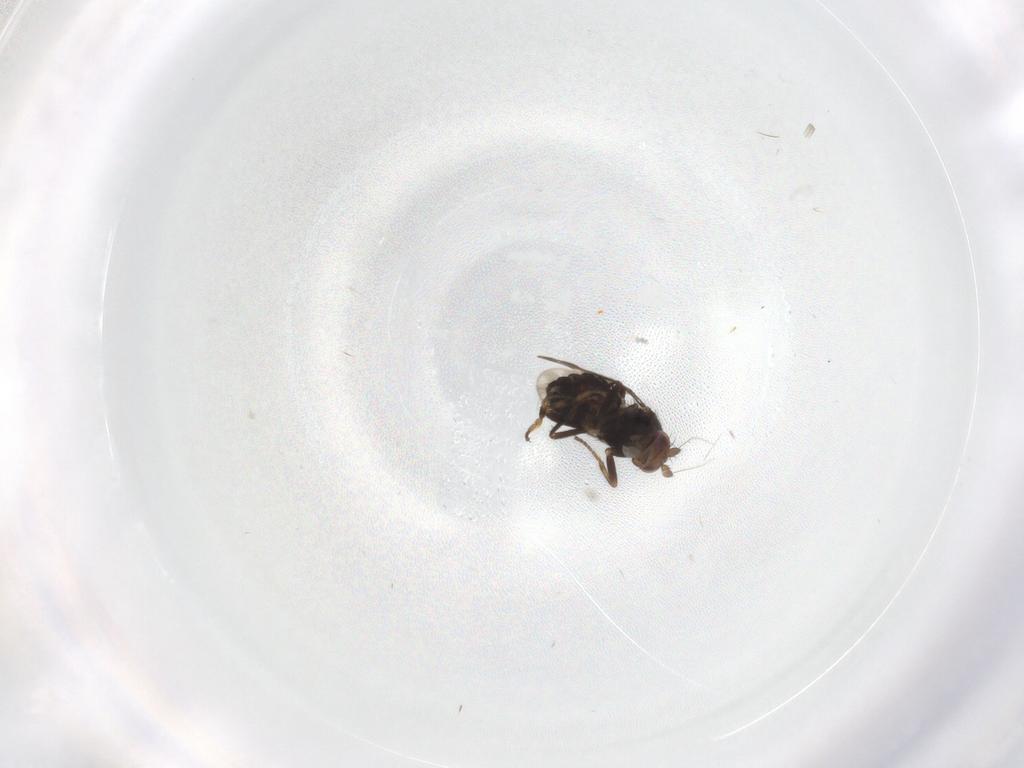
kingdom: Animalia
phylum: Arthropoda
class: Insecta
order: Diptera
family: Sphaeroceridae
